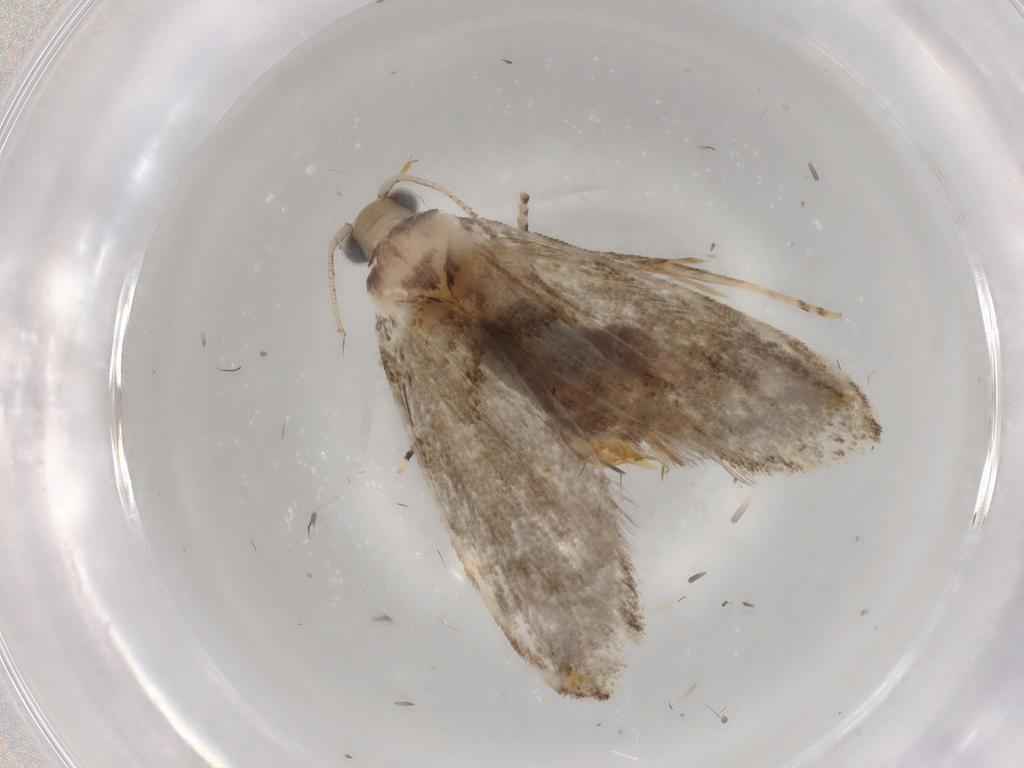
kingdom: Animalia
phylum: Arthropoda
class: Insecta
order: Lepidoptera
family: Tineidae
